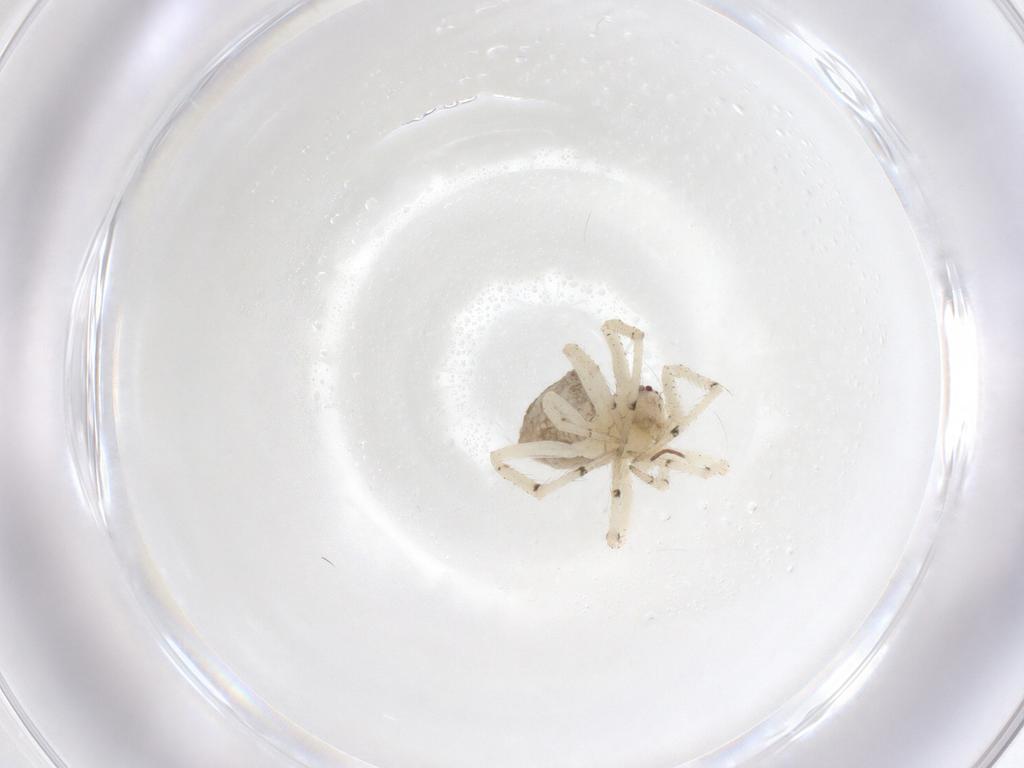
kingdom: Animalia
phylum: Arthropoda
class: Arachnida
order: Araneae
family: Theridiidae
